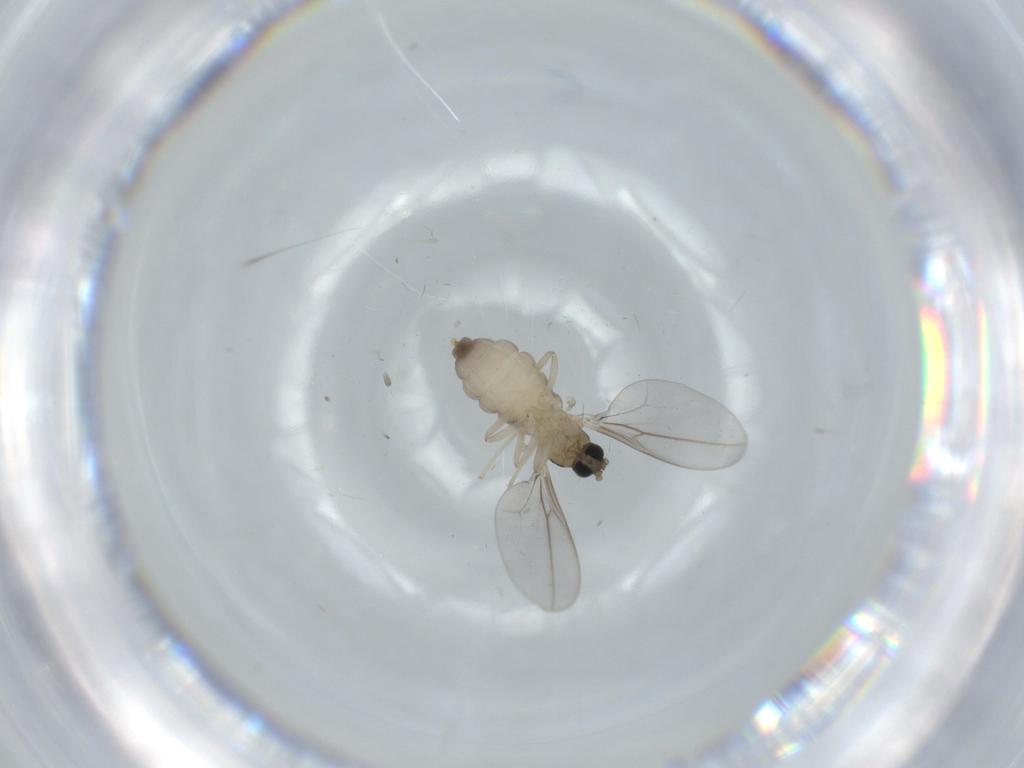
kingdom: Animalia
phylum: Arthropoda
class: Insecta
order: Diptera
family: Cecidomyiidae
